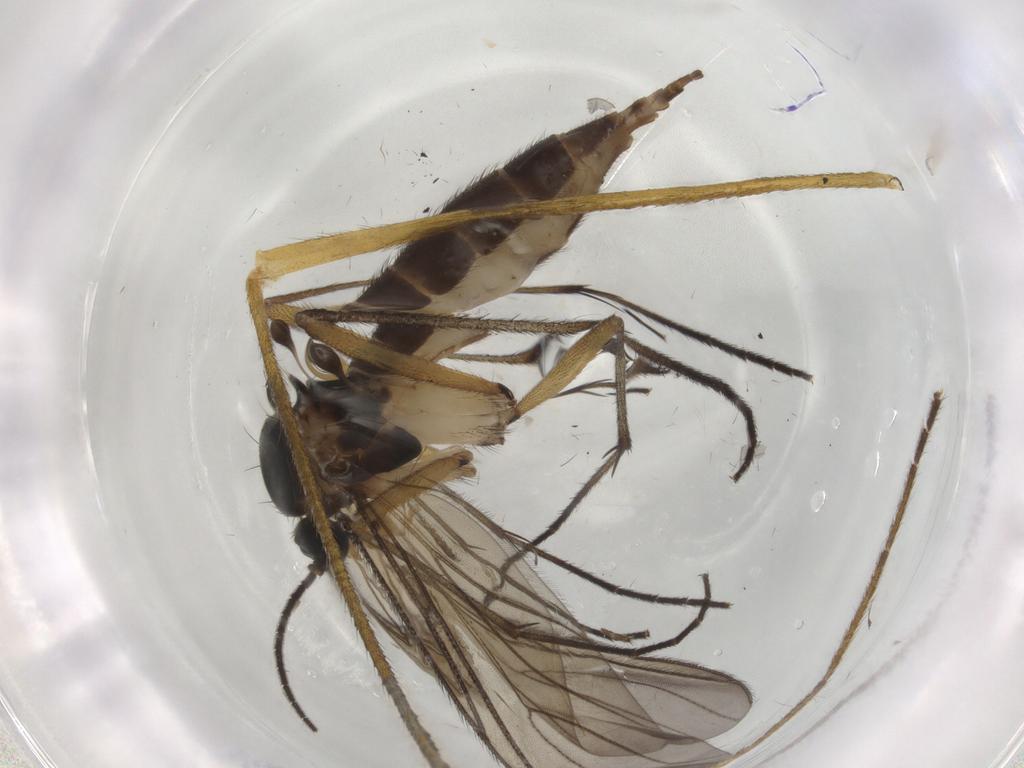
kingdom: Animalia
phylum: Arthropoda
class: Insecta
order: Diptera
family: Sciaridae
